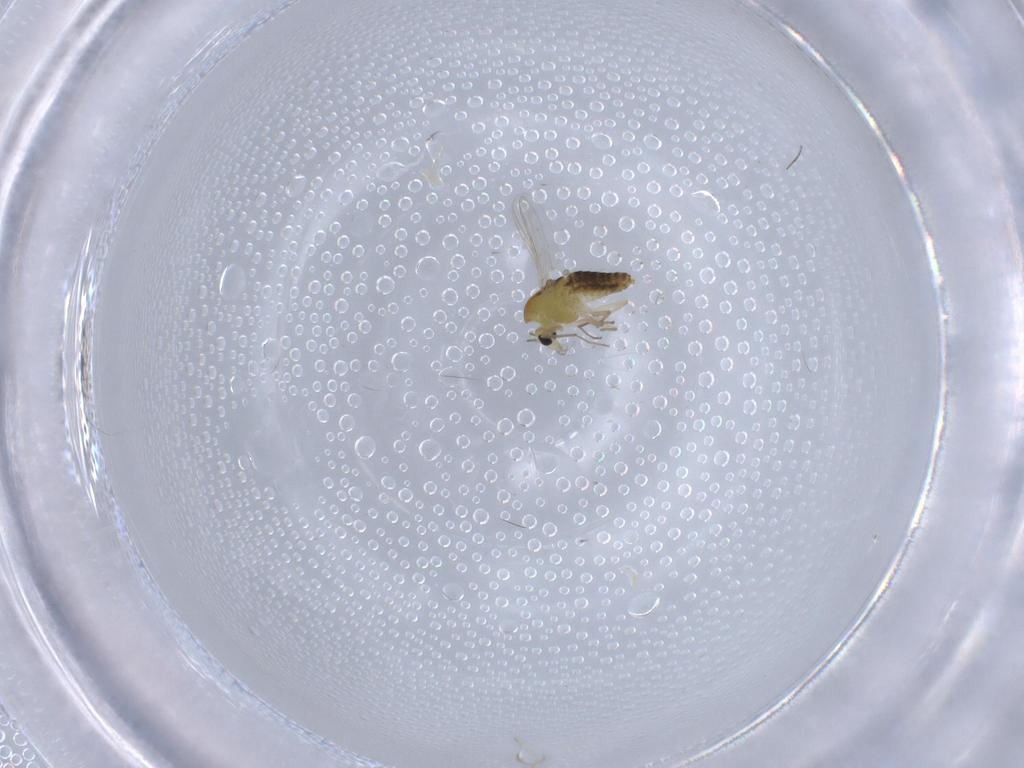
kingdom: Animalia
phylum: Arthropoda
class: Insecta
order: Diptera
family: Chironomidae
